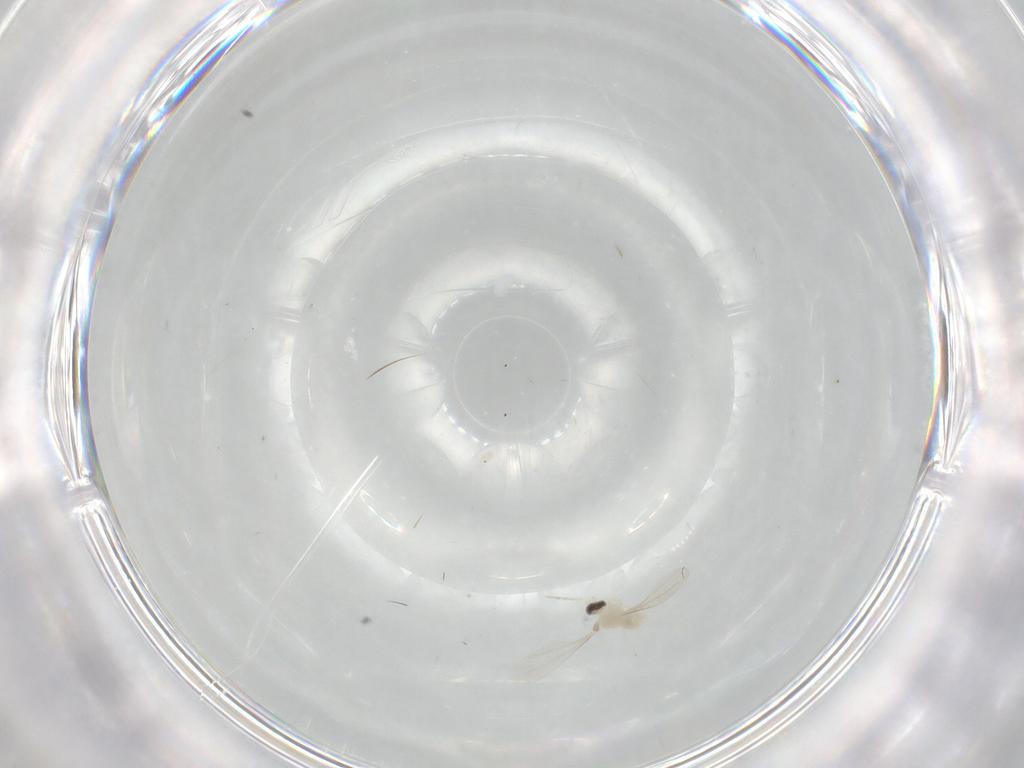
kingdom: Animalia
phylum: Arthropoda
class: Insecta
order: Diptera
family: Cecidomyiidae
